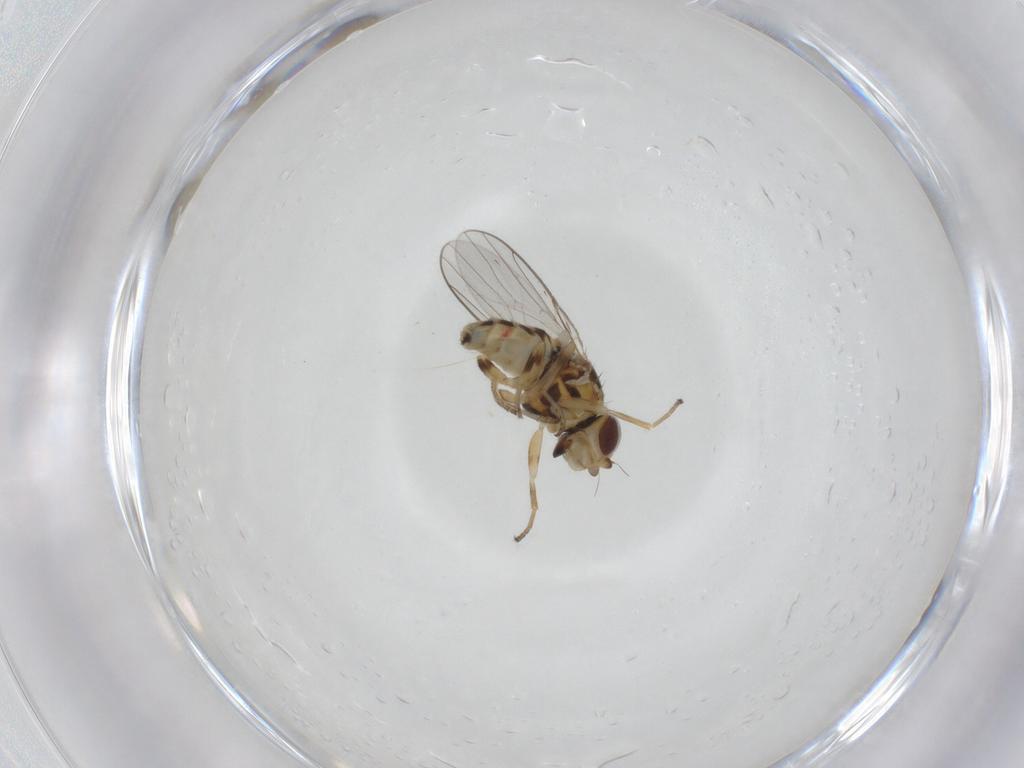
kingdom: Animalia
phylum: Arthropoda
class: Insecta
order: Diptera
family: Chloropidae
